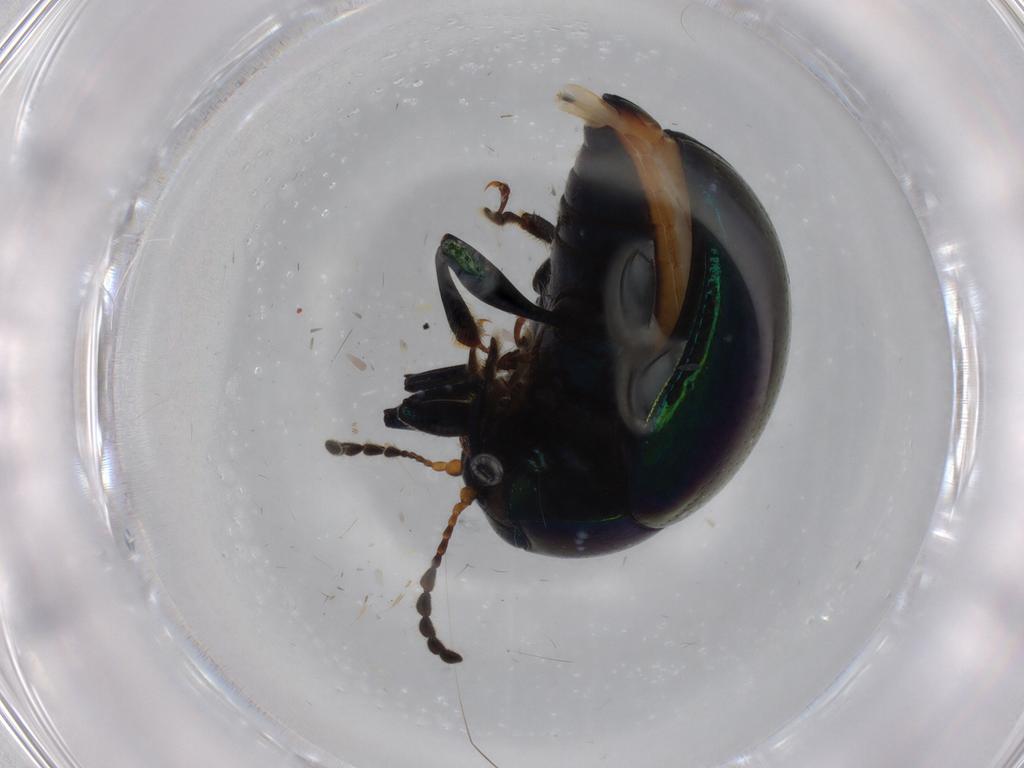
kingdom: Animalia
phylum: Arthropoda
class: Insecta
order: Coleoptera
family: Chrysomelidae
